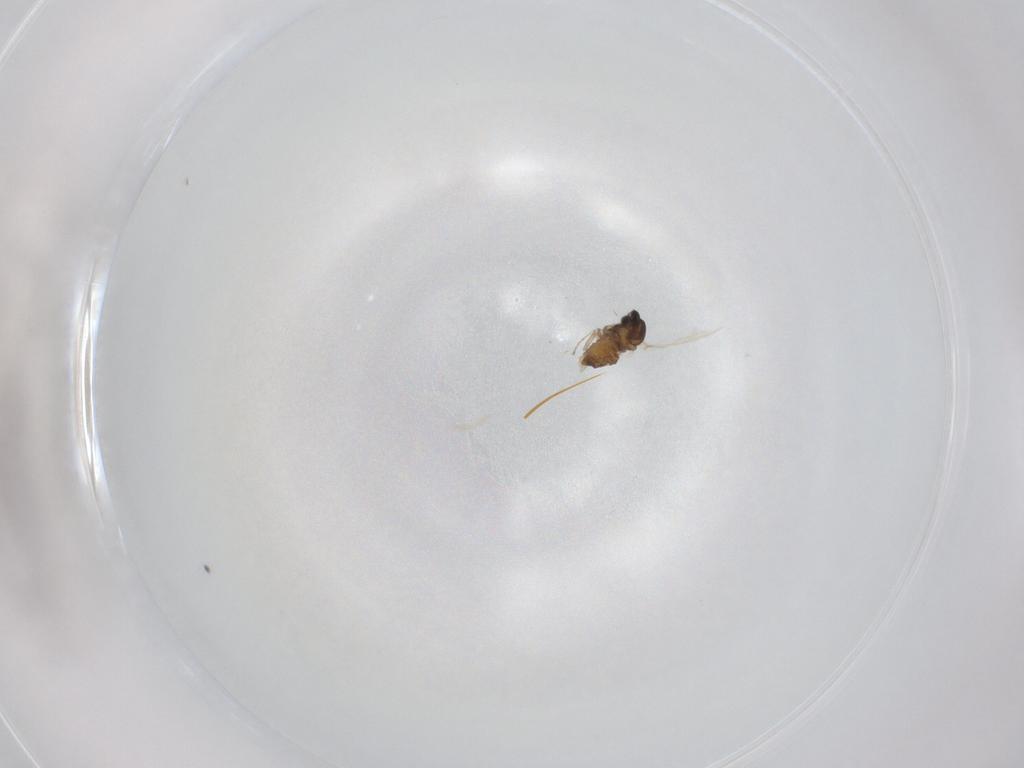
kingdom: Animalia
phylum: Arthropoda
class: Insecta
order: Diptera
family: Cecidomyiidae
